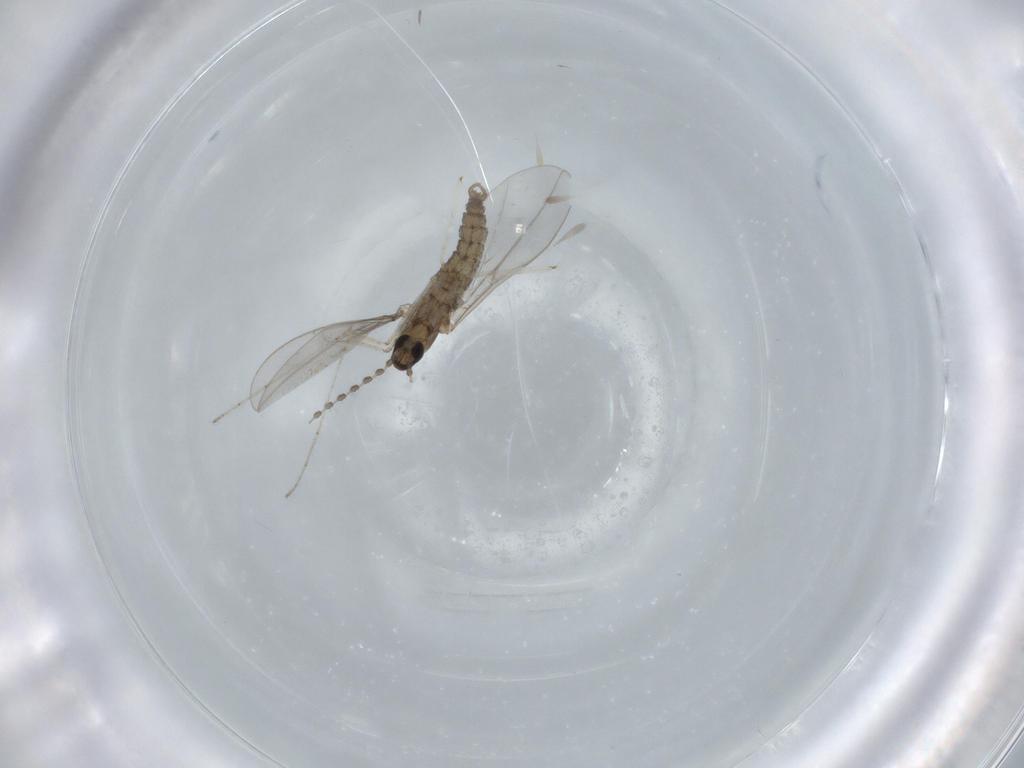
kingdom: Animalia
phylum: Arthropoda
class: Insecta
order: Diptera
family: Cecidomyiidae
